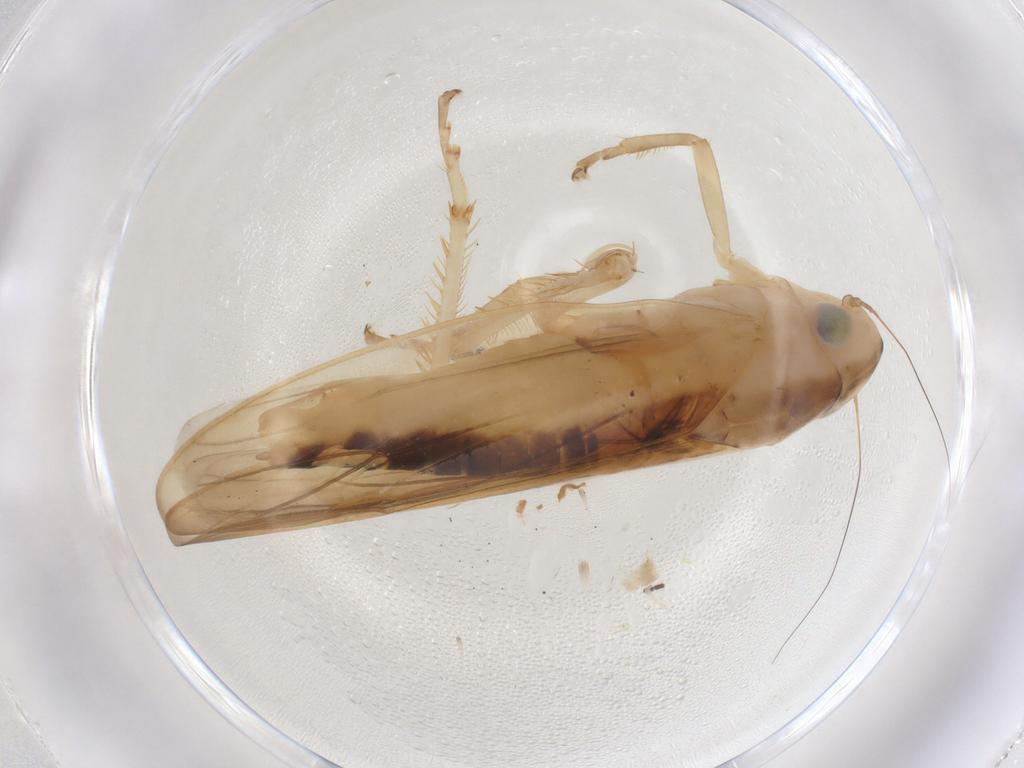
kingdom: Animalia
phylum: Arthropoda
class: Insecta
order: Hemiptera
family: Cicadellidae
